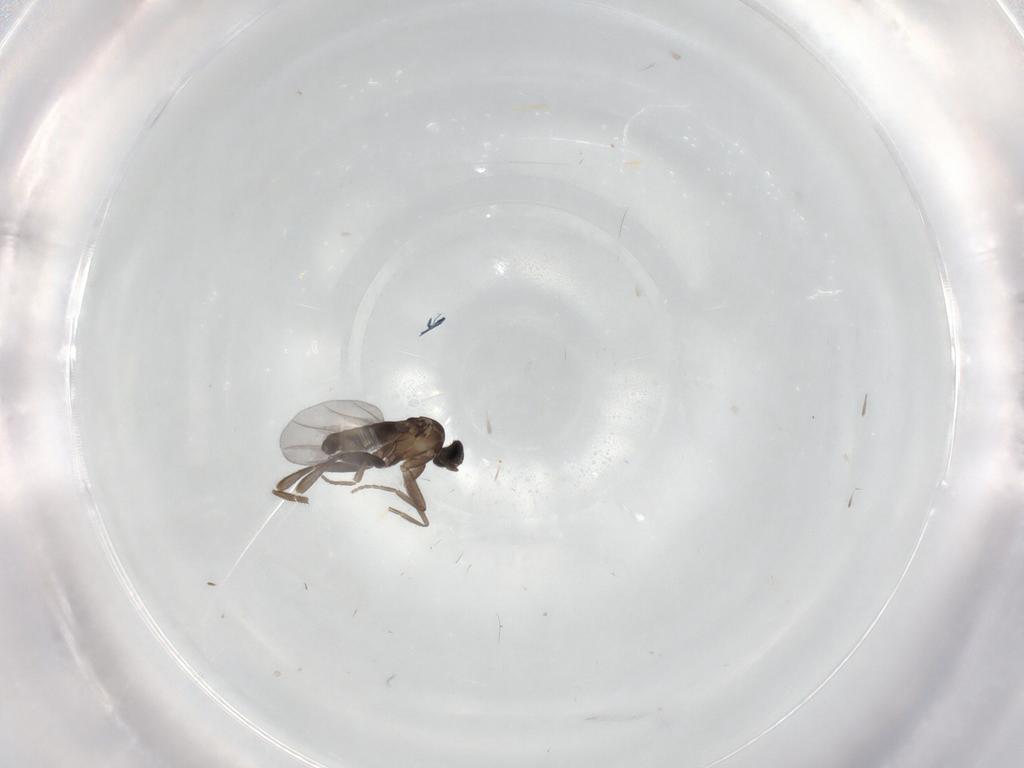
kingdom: Animalia
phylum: Arthropoda
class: Insecta
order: Diptera
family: Phoridae
